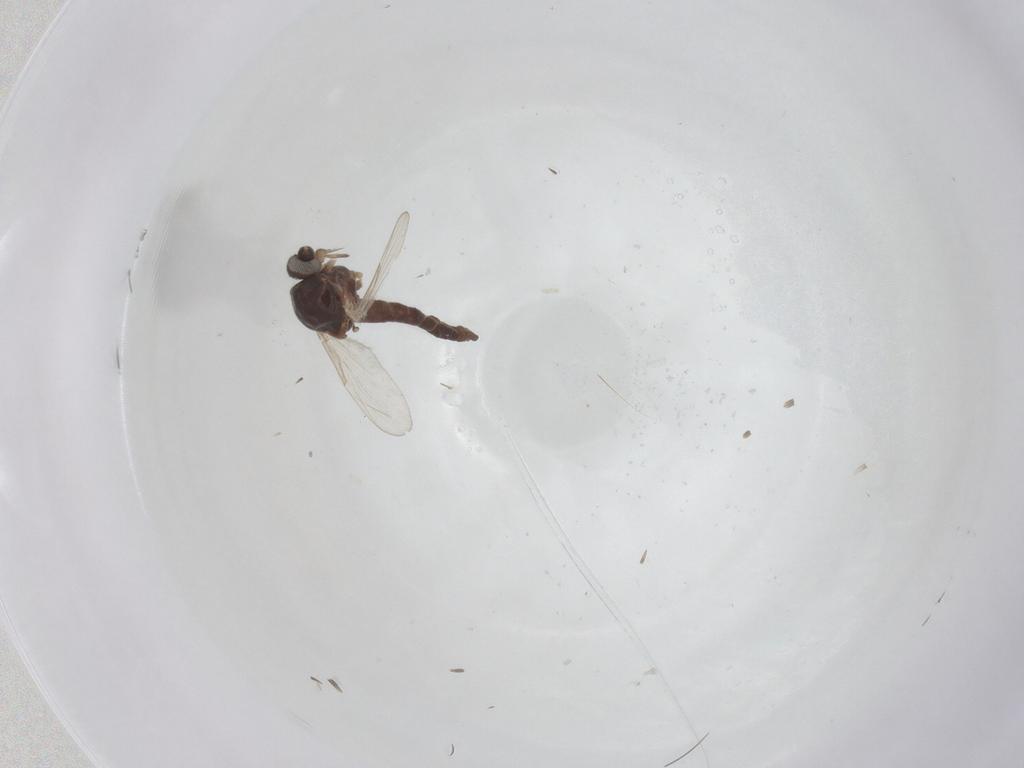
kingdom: Animalia
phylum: Arthropoda
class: Insecta
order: Diptera
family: Ceratopogonidae
